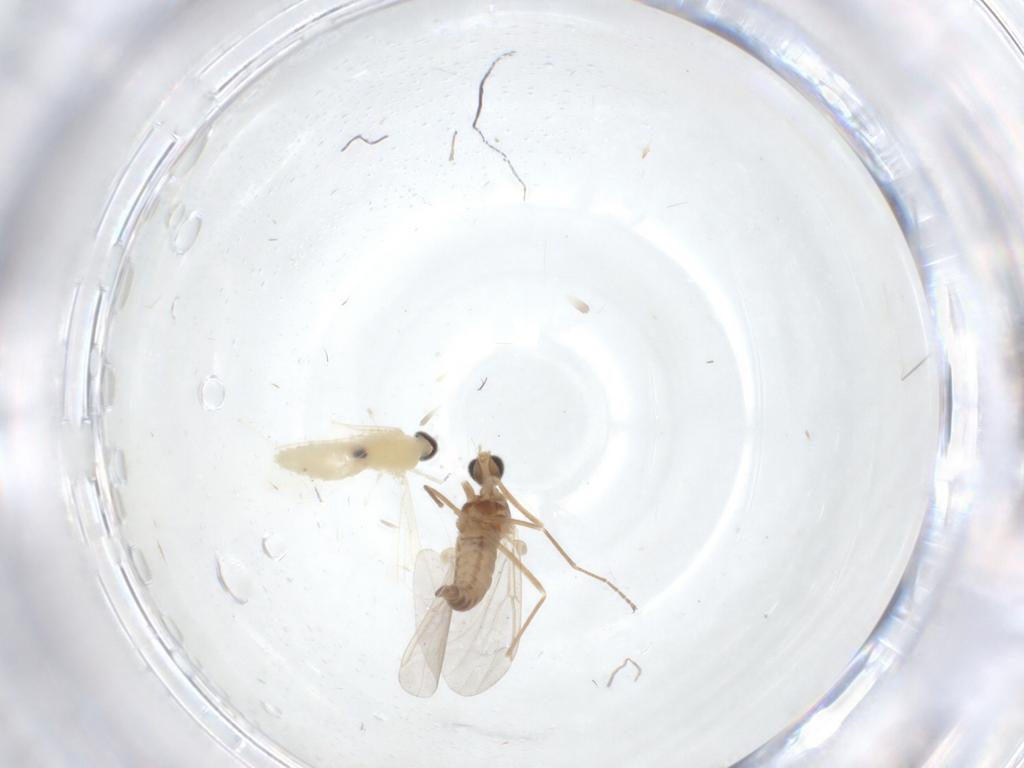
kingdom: Animalia
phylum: Arthropoda
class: Insecta
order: Diptera
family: Cecidomyiidae
